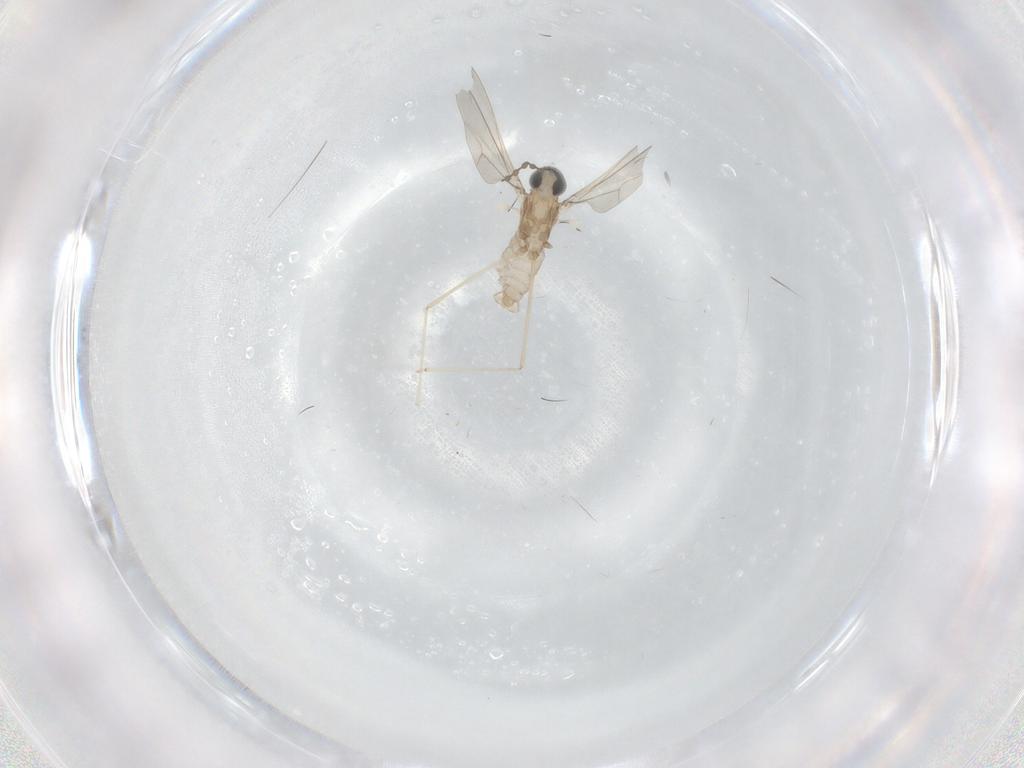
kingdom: Animalia
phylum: Arthropoda
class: Insecta
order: Diptera
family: Cecidomyiidae
